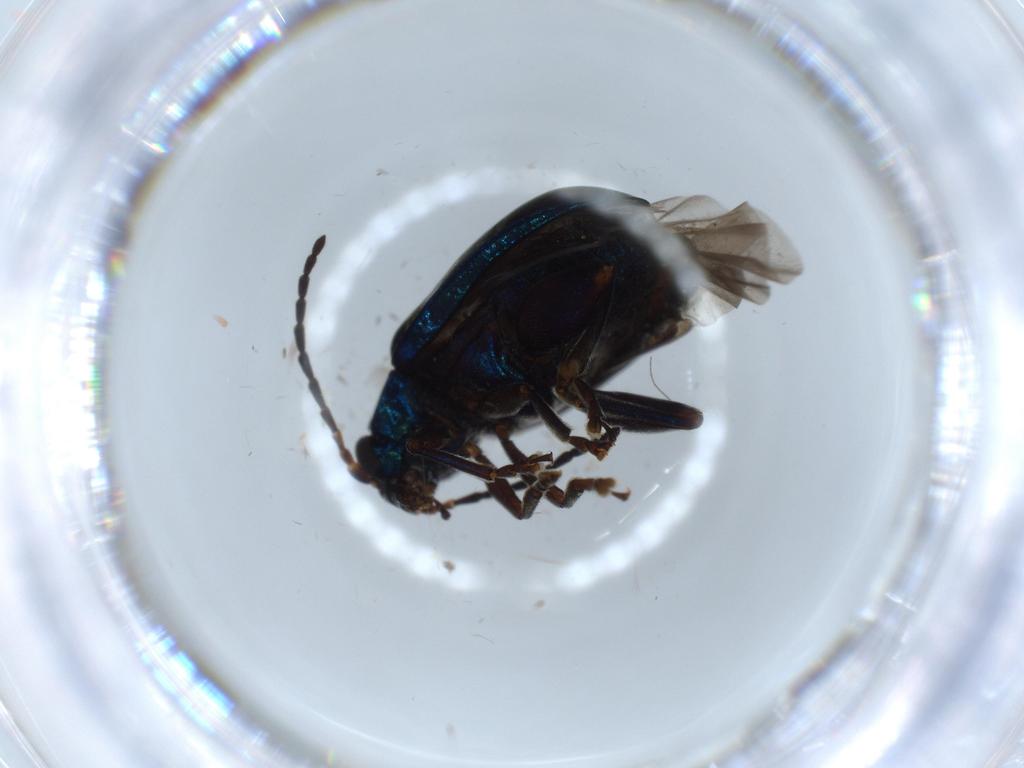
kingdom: Animalia
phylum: Arthropoda
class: Insecta
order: Coleoptera
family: Chrysomelidae
